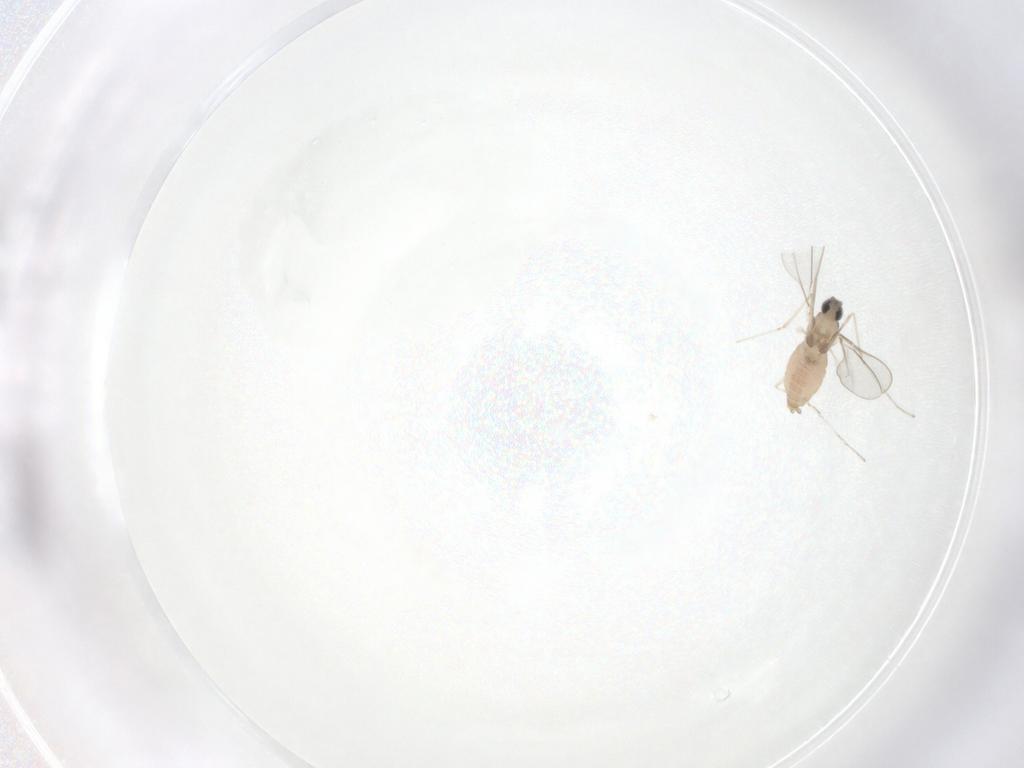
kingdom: Animalia
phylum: Arthropoda
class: Insecta
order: Diptera
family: Cecidomyiidae
